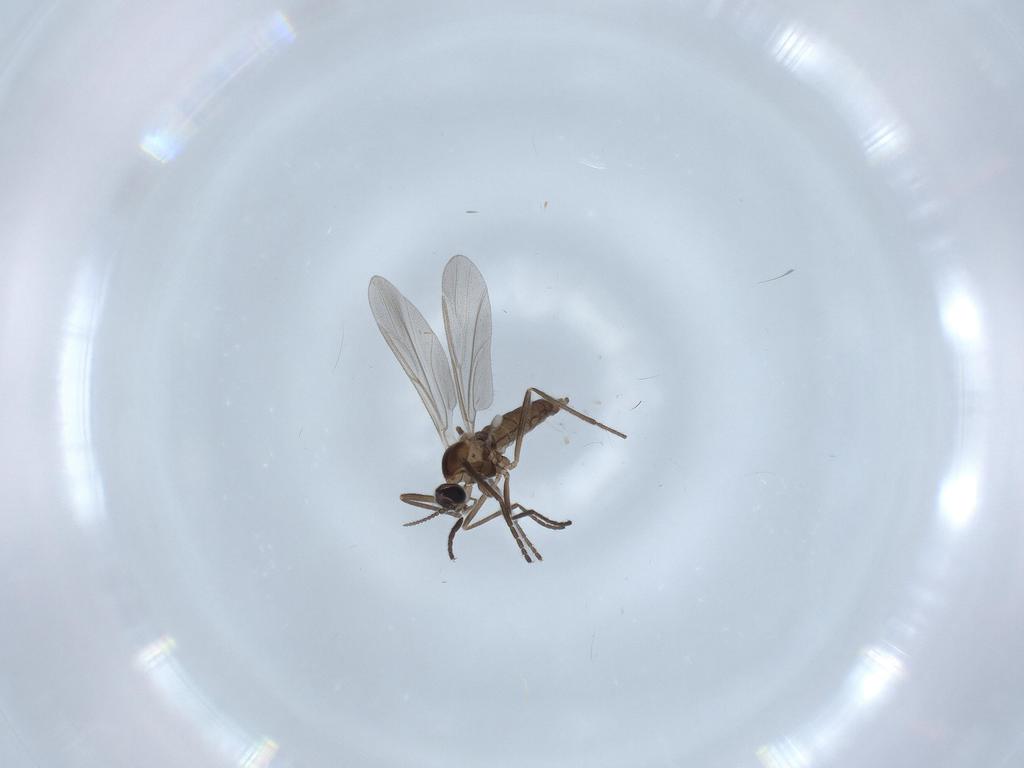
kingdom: Animalia
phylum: Arthropoda
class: Insecta
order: Diptera
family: Cecidomyiidae
